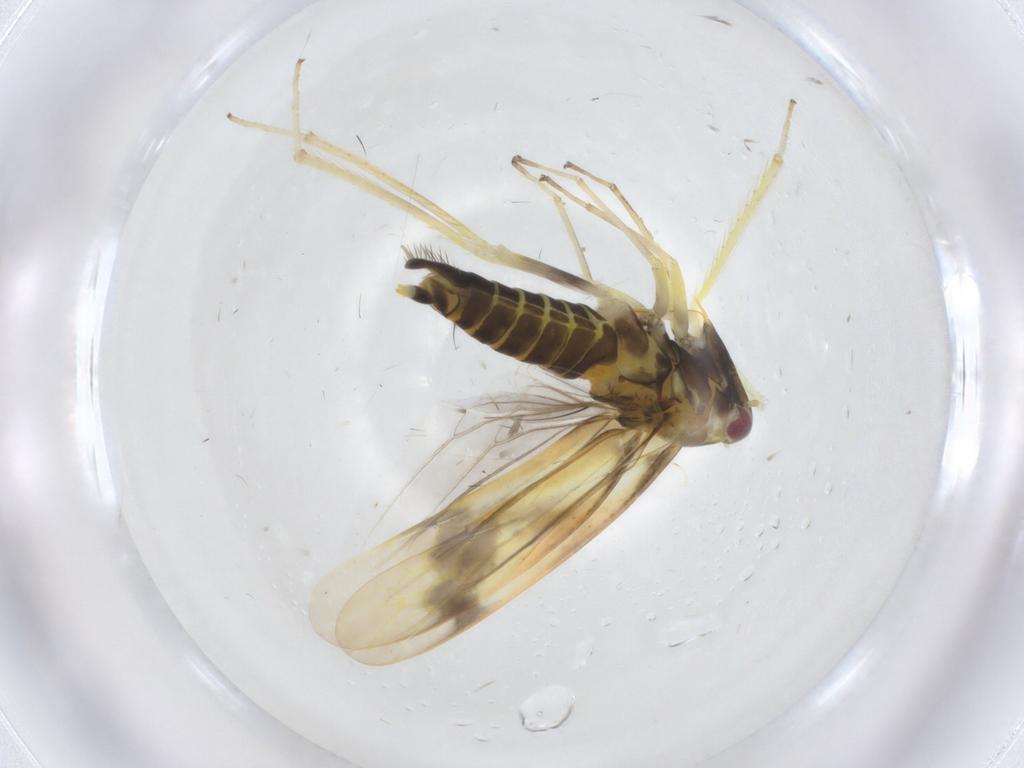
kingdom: Animalia
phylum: Arthropoda
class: Insecta
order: Hemiptera
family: Cicadellidae
